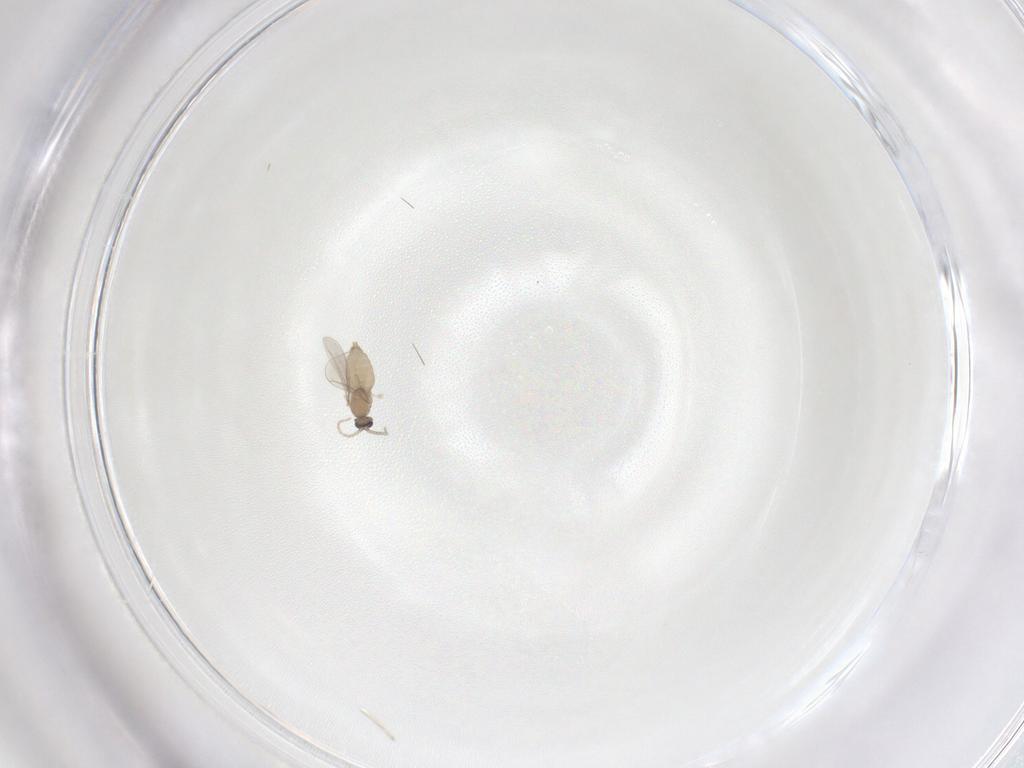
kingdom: Animalia
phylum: Arthropoda
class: Insecta
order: Diptera
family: Cecidomyiidae
